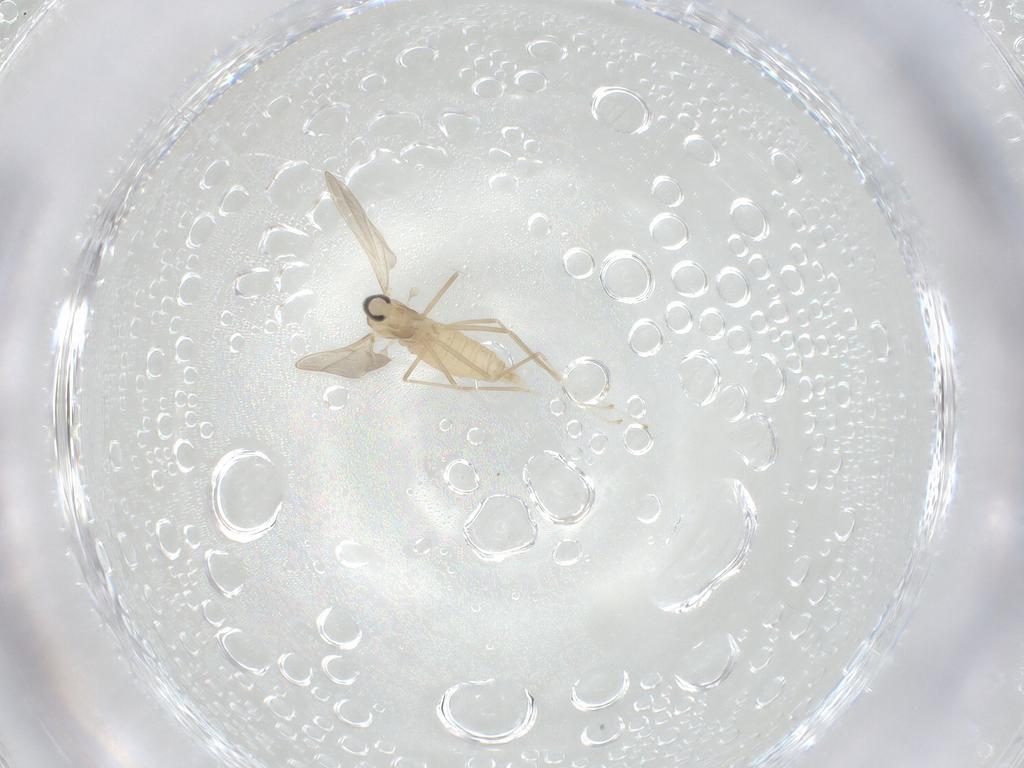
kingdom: Animalia
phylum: Arthropoda
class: Insecta
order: Diptera
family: Cecidomyiidae
